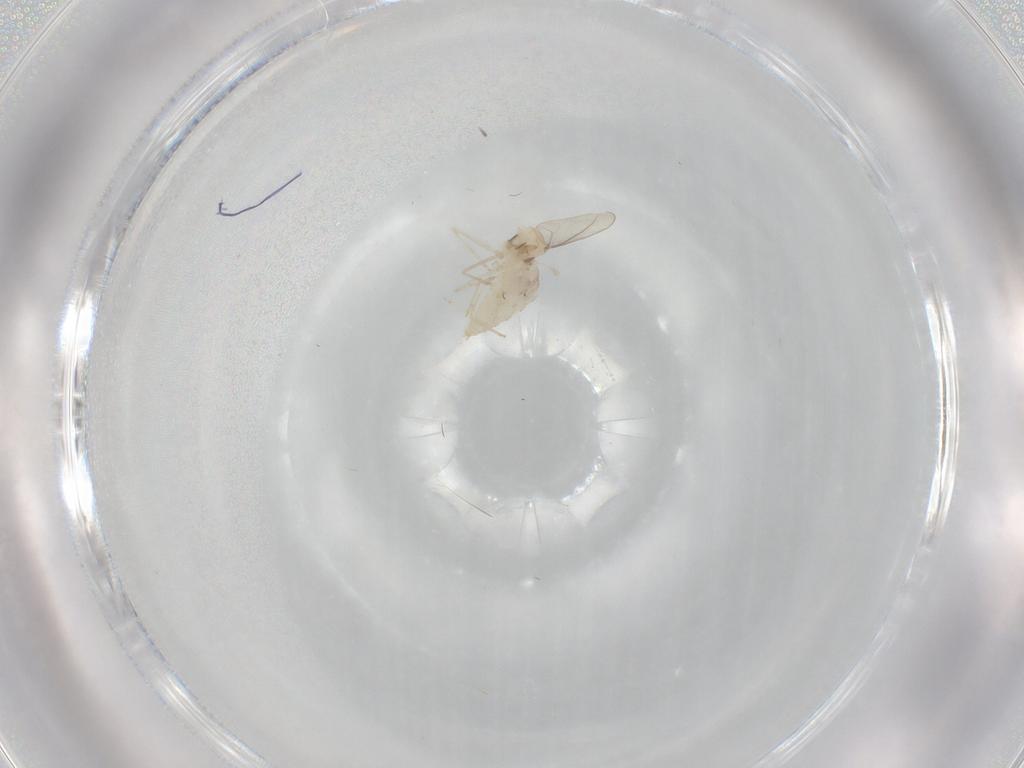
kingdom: Animalia
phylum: Arthropoda
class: Insecta
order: Diptera
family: Cecidomyiidae
